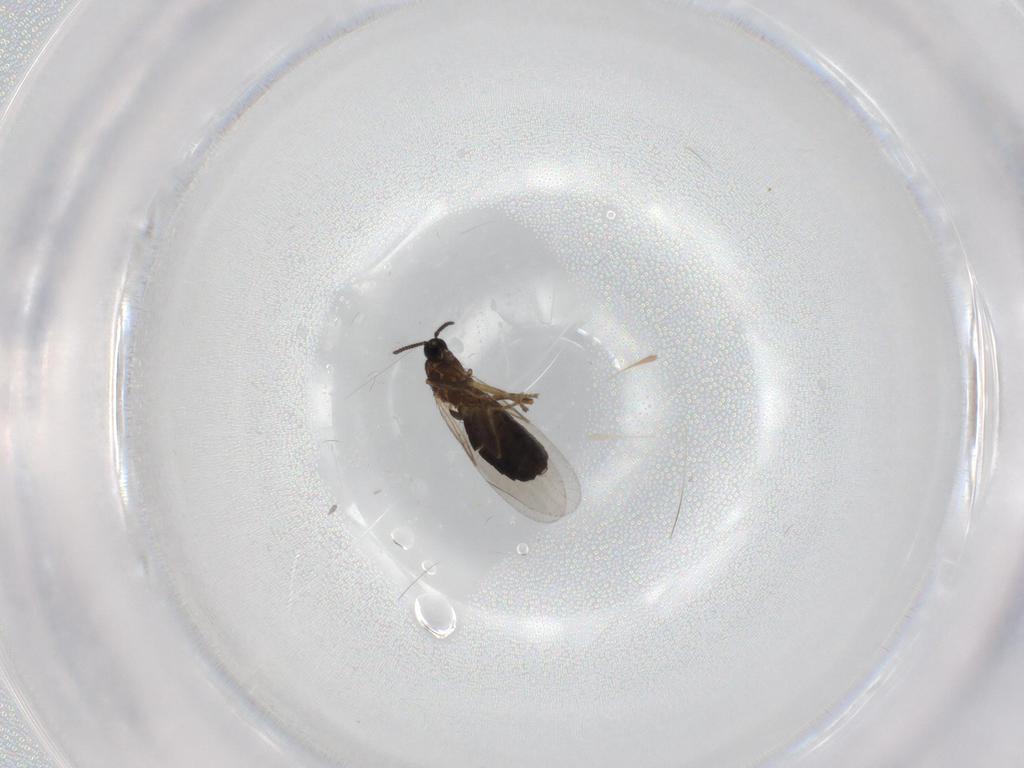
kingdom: Animalia
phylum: Arthropoda
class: Insecta
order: Diptera
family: Scatopsidae
